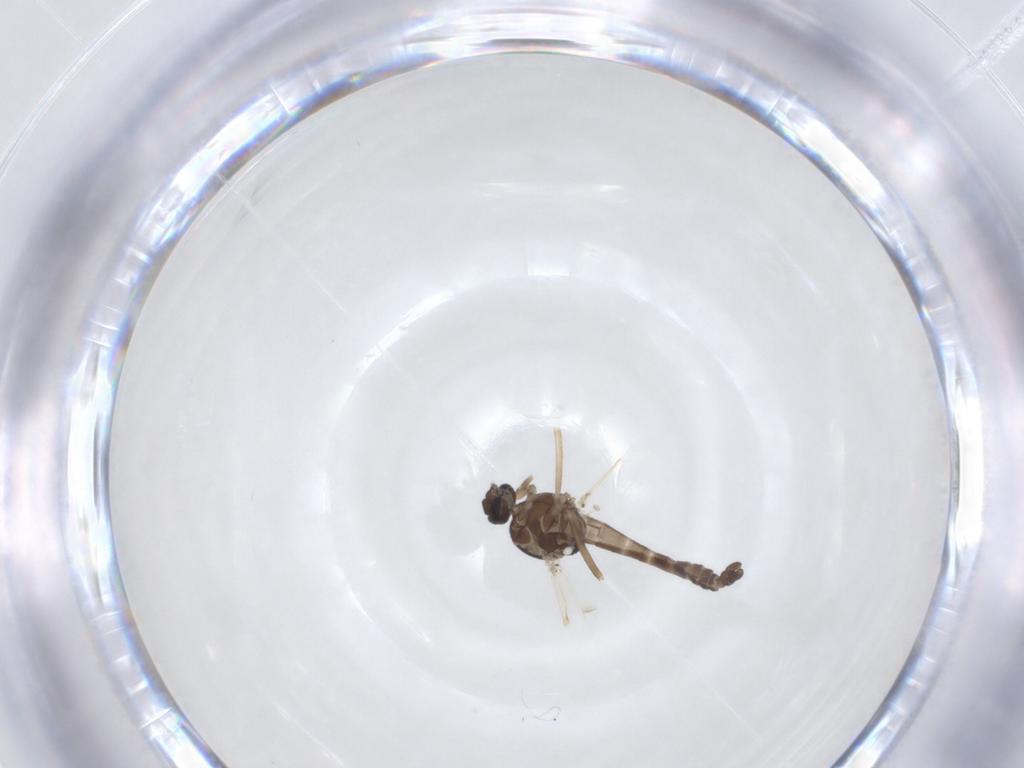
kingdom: Animalia
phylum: Arthropoda
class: Insecta
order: Diptera
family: Ceratopogonidae
